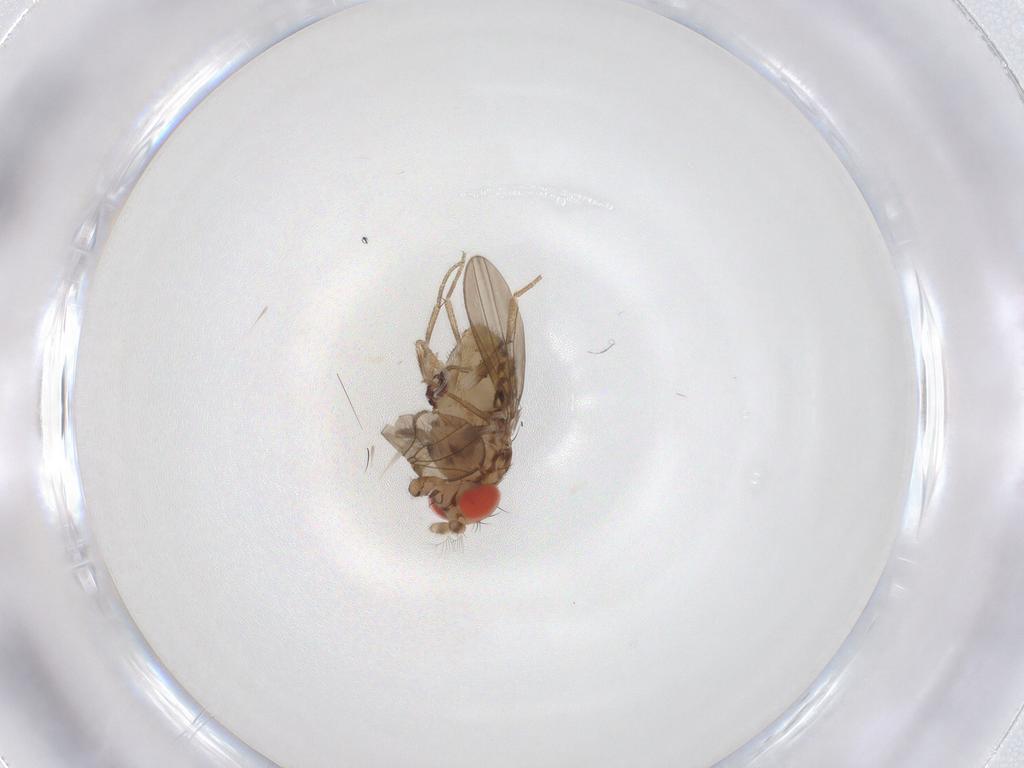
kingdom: Animalia
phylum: Arthropoda
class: Insecta
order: Diptera
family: Drosophilidae
